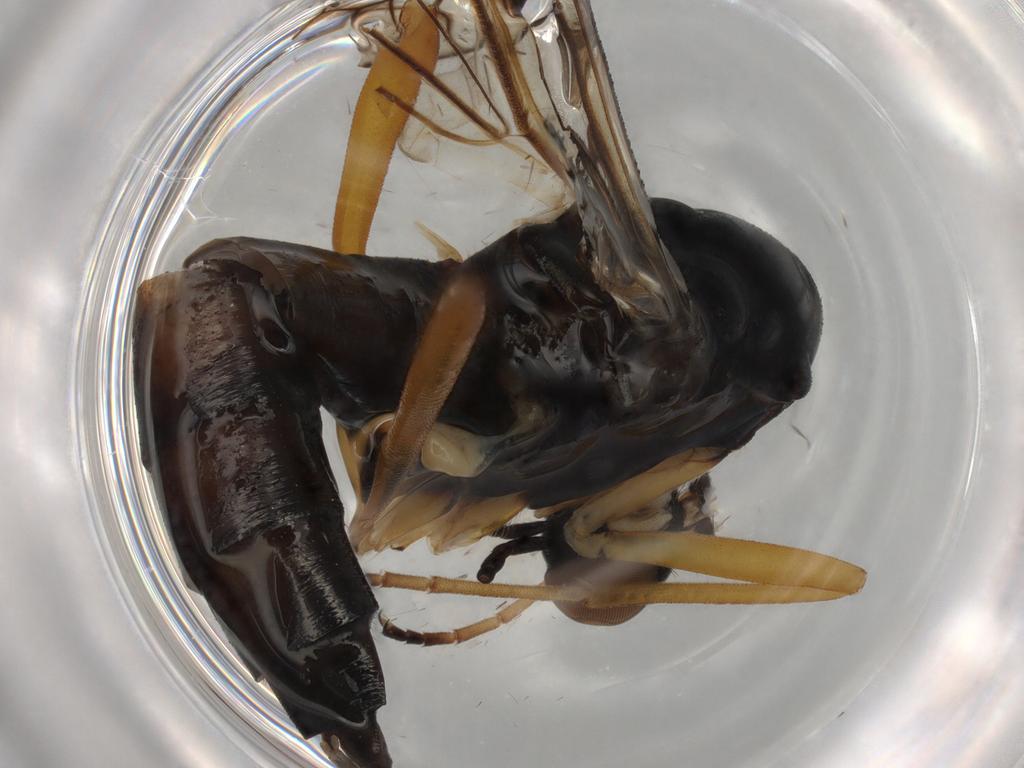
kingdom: Animalia
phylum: Arthropoda
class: Insecta
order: Diptera
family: Xylophagidae
